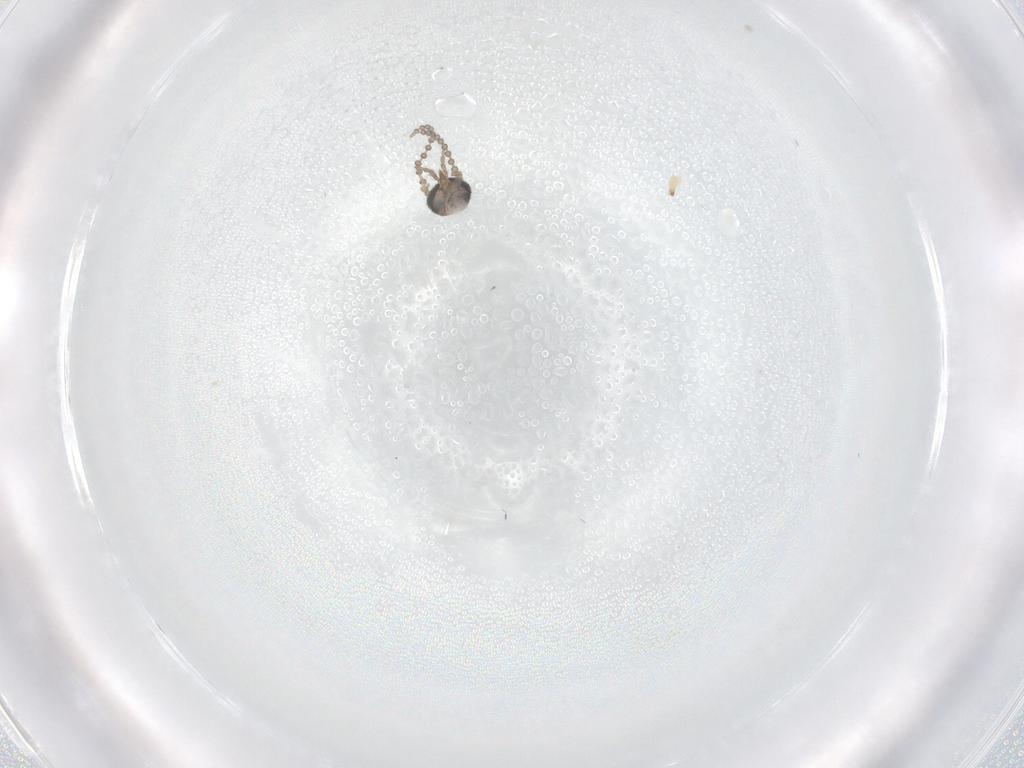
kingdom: Animalia
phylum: Arthropoda
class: Insecta
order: Diptera
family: Drosophilidae
